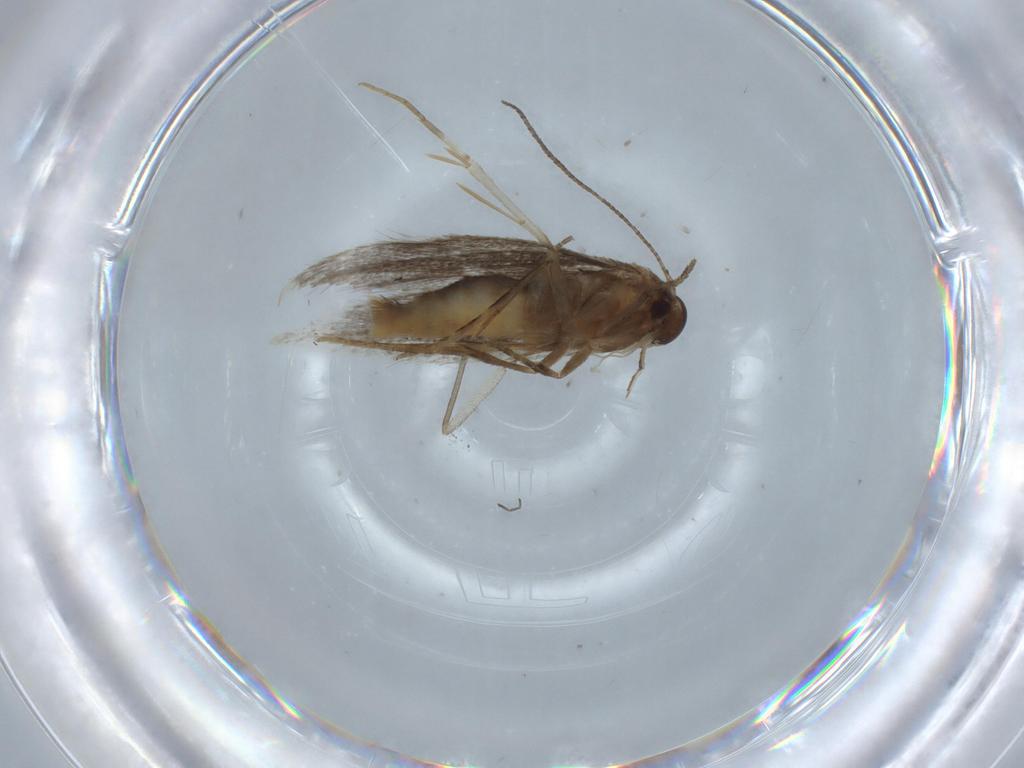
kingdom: Animalia
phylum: Arthropoda
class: Insecta
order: Lepidoptera
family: Elachistidae
